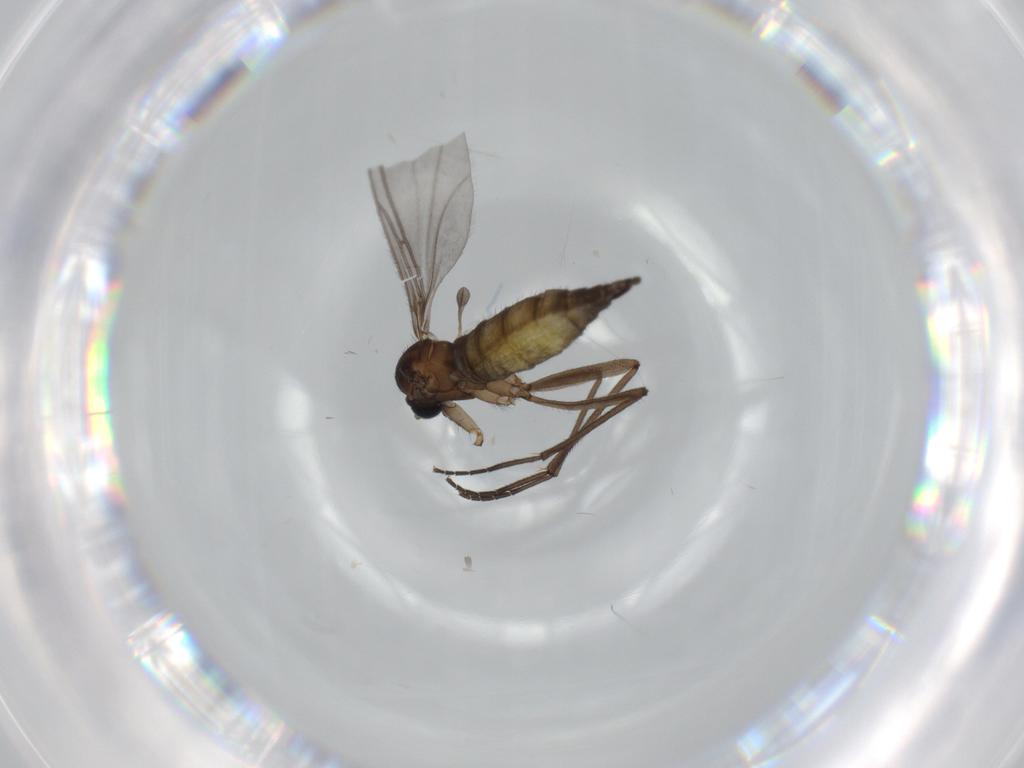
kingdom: Animalia
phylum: Arthropoda
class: Insecta
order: Diptera
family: Sciaridae
